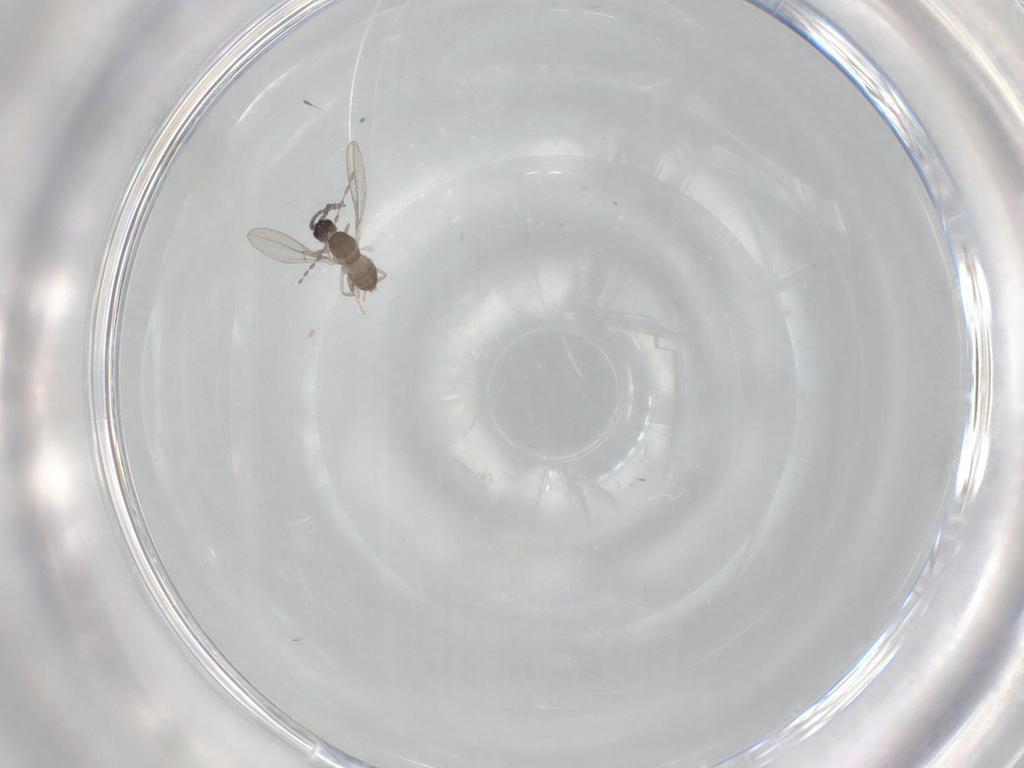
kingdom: Animalia
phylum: Arthropoda
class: Insecta
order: Diptera
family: Cecidomyiidae
